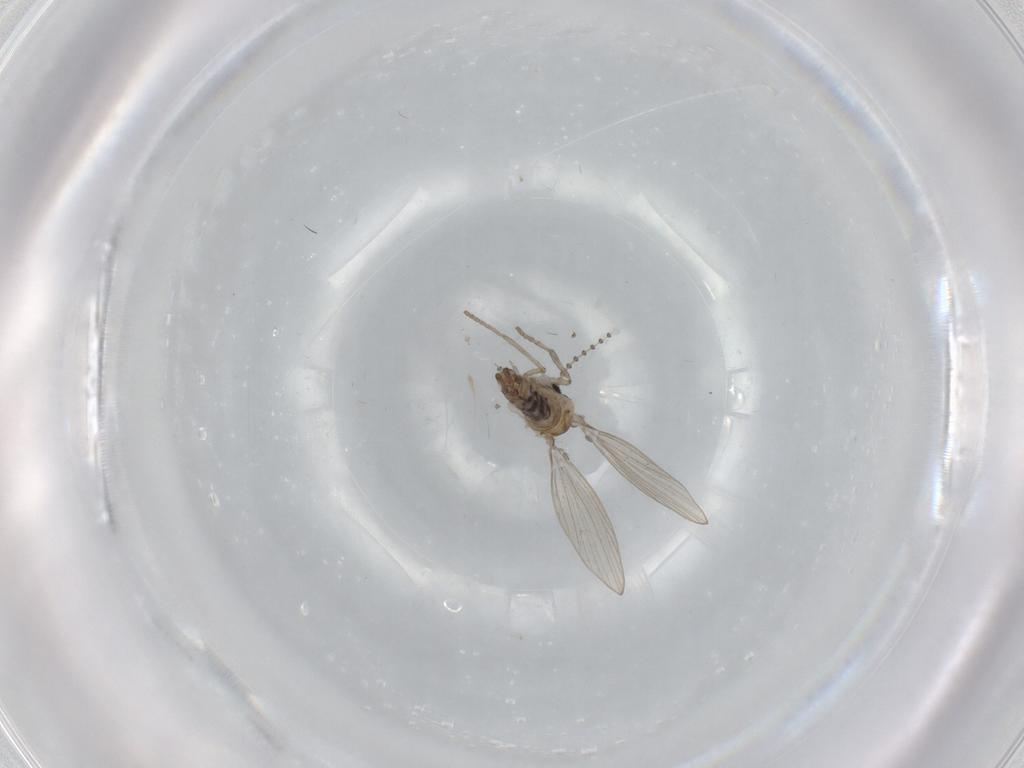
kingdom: Animalia
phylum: Arthropoda
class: Insecta
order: Diptera
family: Psychodidae
